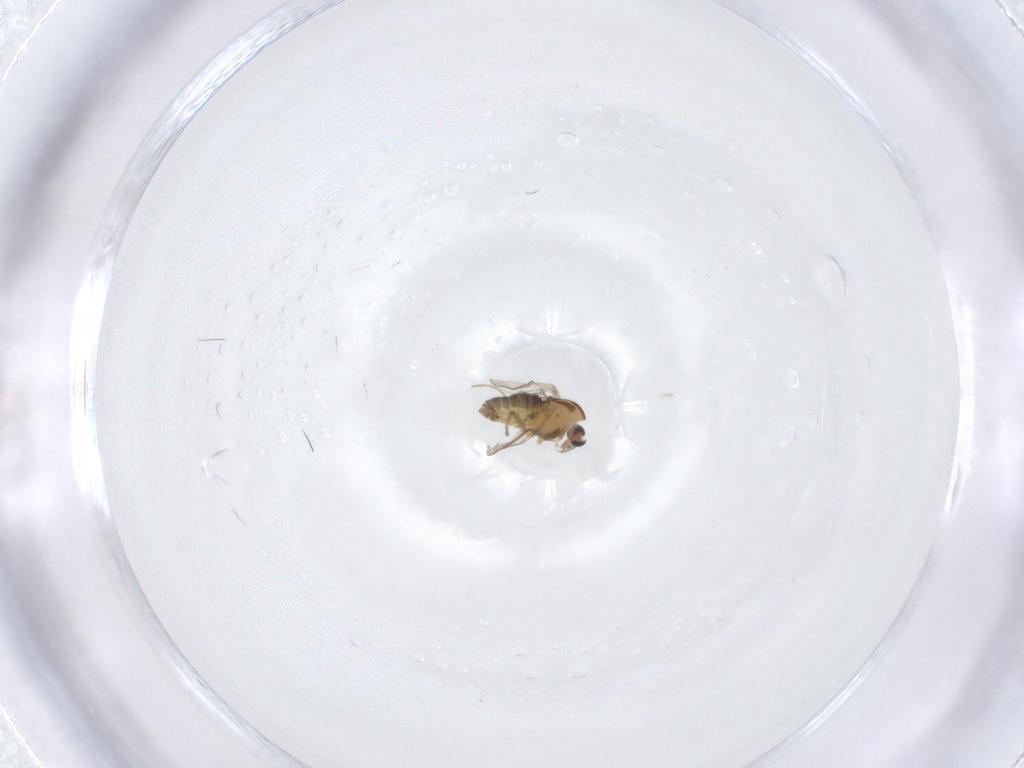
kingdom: Animalia
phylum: Arthropoda
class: Insecta
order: Diptera
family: Chironomidae
